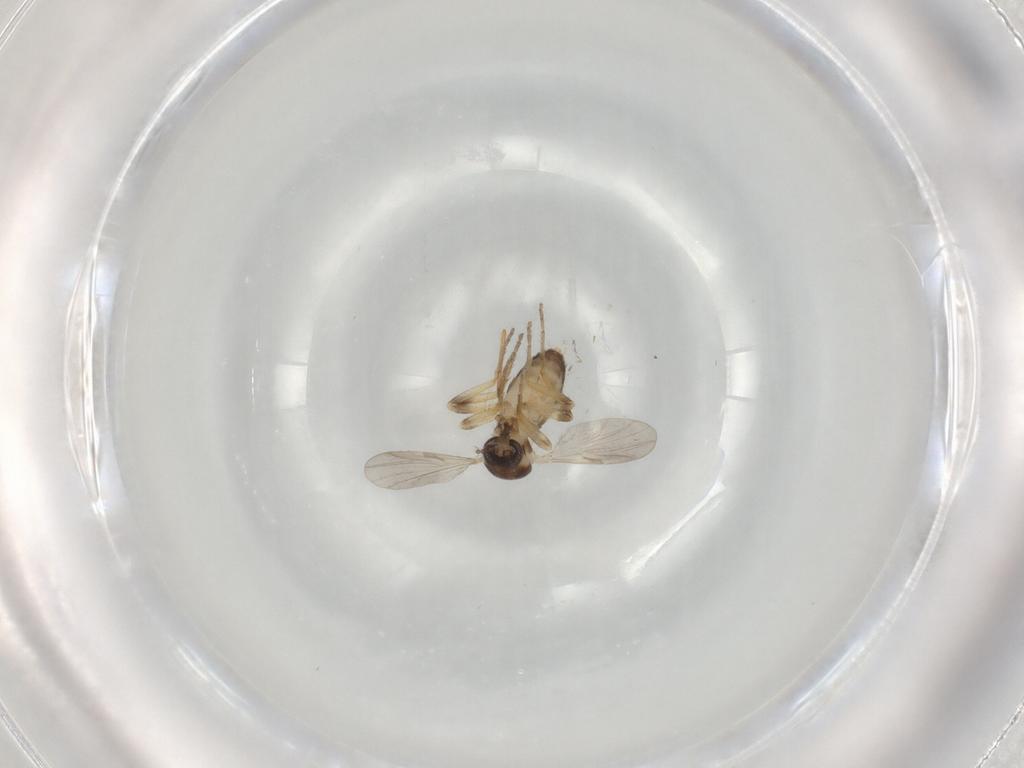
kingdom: Animalia
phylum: Arthropoda
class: Insecta
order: Diptera
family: Ceratopogonidae
